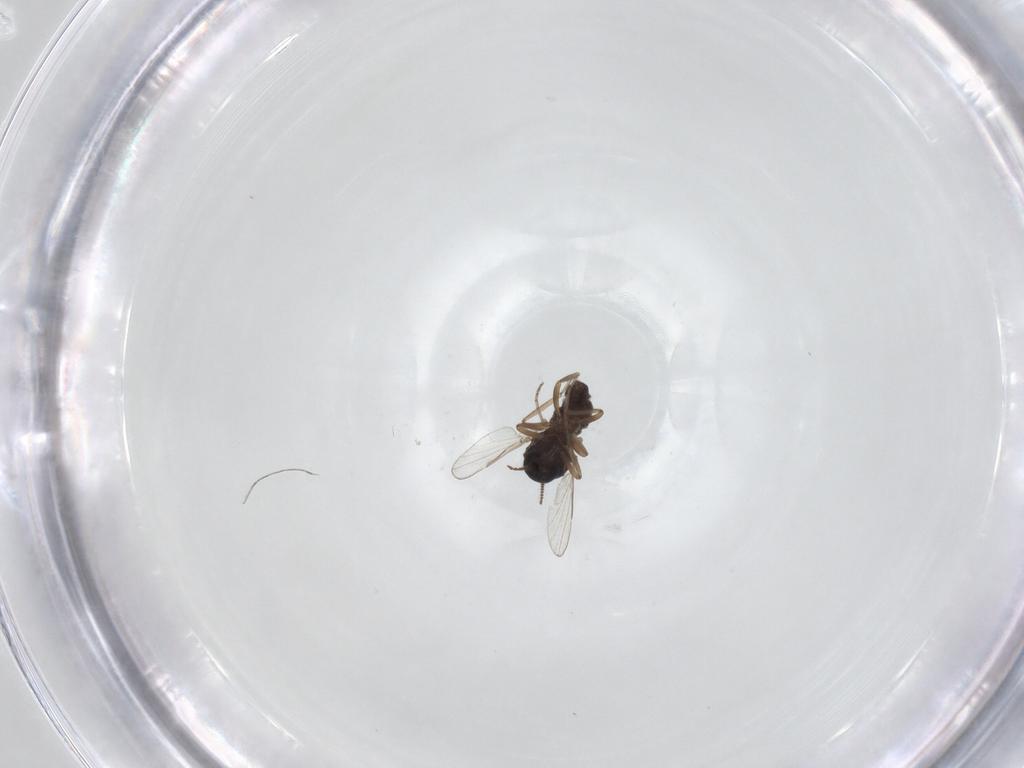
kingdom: Animalia
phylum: Arthropoda
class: Insecta
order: Diptera
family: Ceratopogonidae
